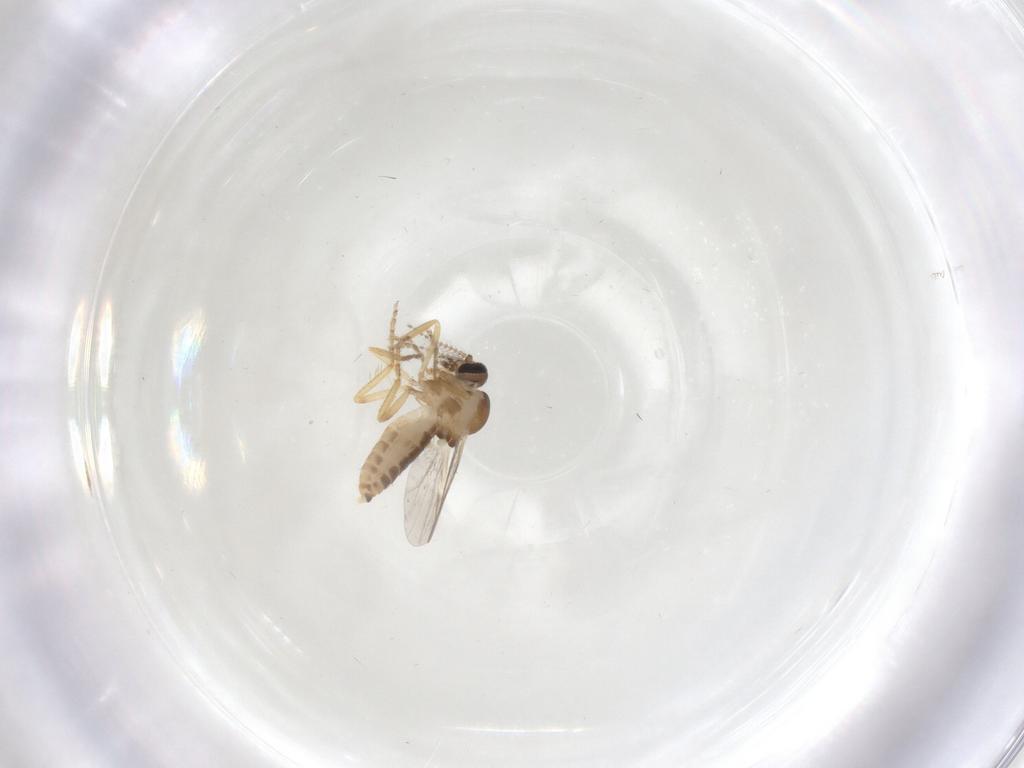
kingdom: Animalia
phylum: Arthropoda
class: Insecta
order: Diptera
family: Ceratopogonidae
